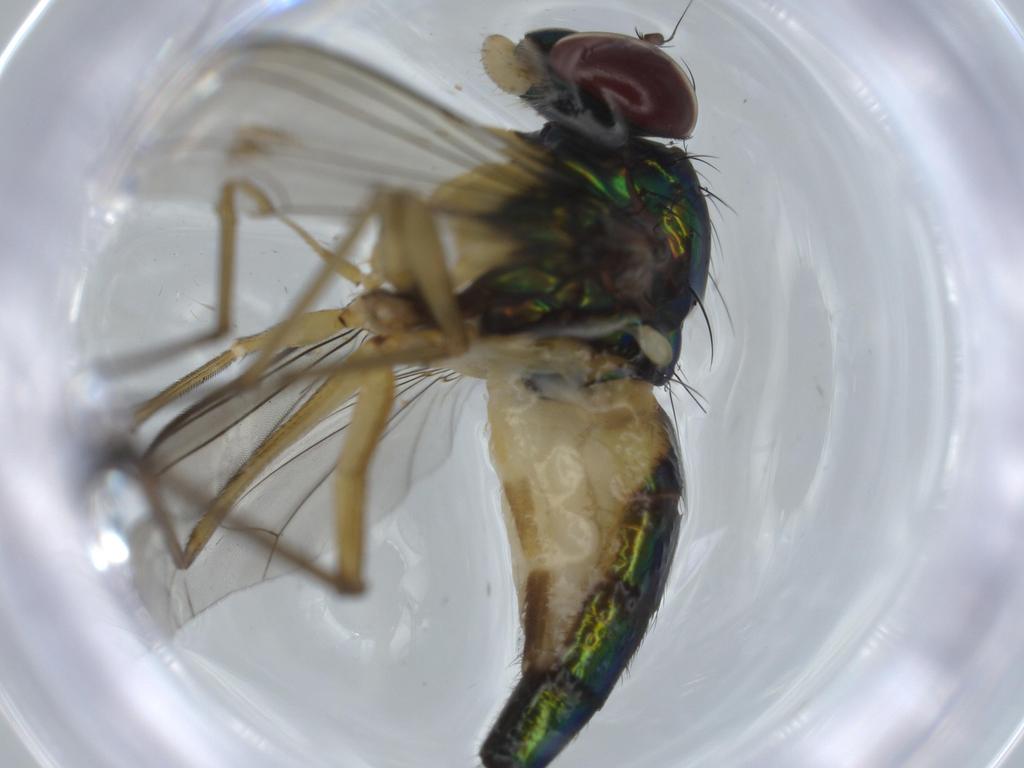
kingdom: Animalia
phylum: Arthropoda
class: Insecta
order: Diptera
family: Dolichopodidae
